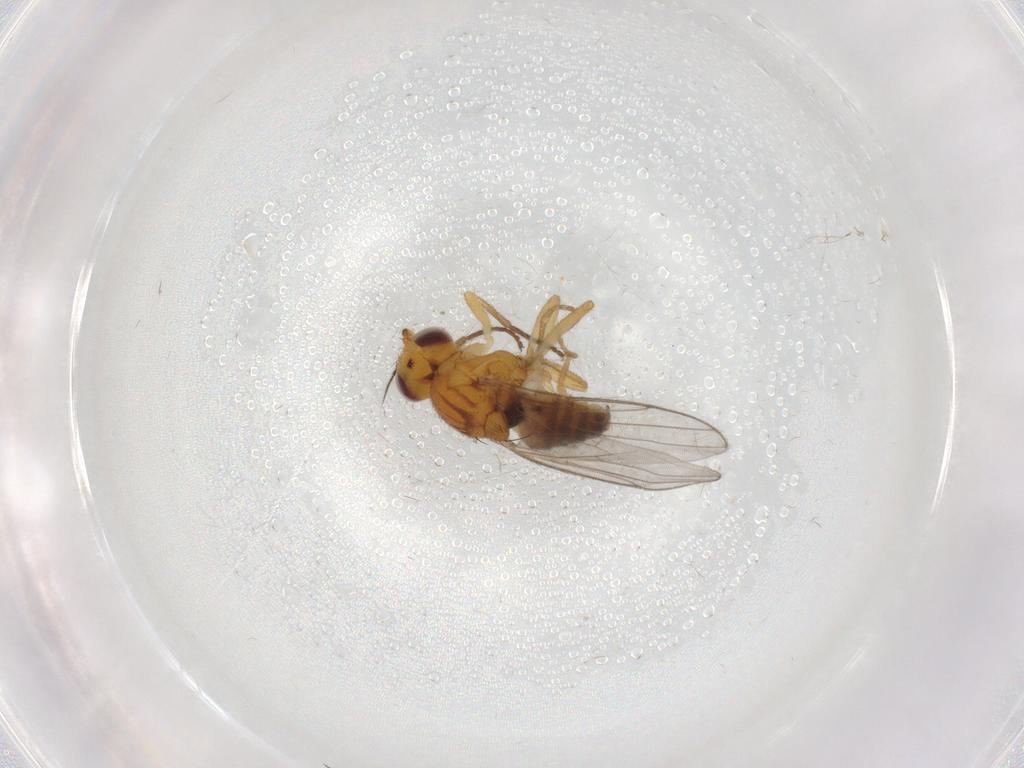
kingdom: Animalia
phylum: Arthropoda
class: Insecta
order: Diptera
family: Chloropidae
